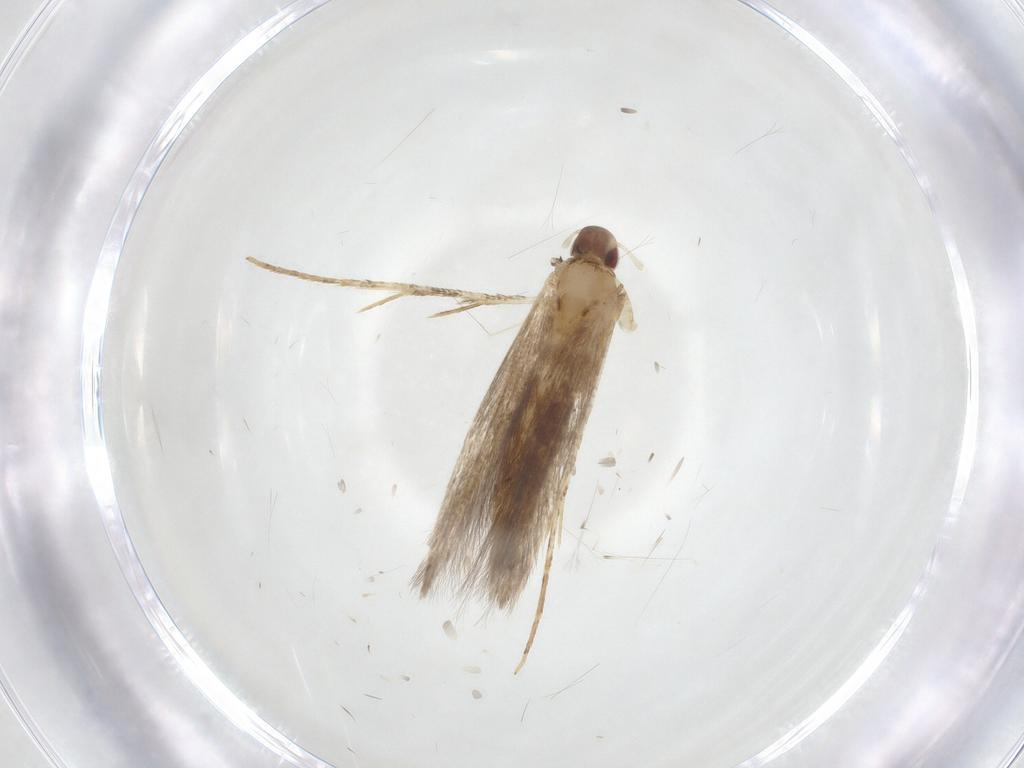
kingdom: Animalia
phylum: Arthropoda
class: Insecta
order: Lepidoptera
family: Cosmopterigidae
